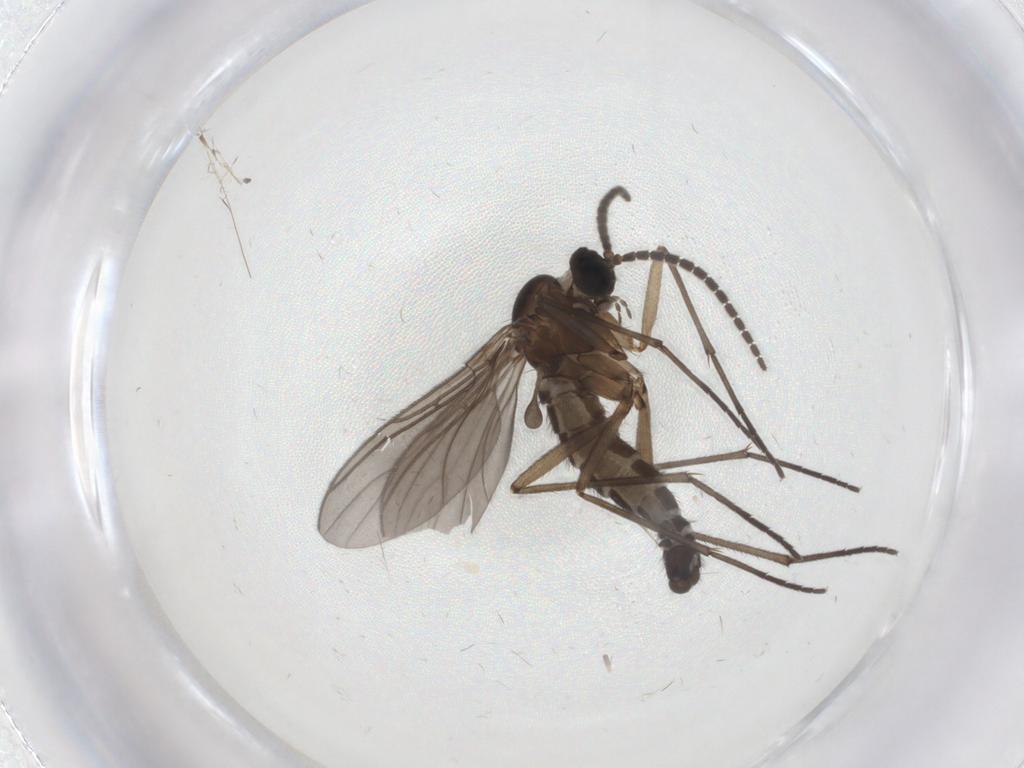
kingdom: Animalia
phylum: Arthropoda
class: Insecta
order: Diptera
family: Sciaridae
